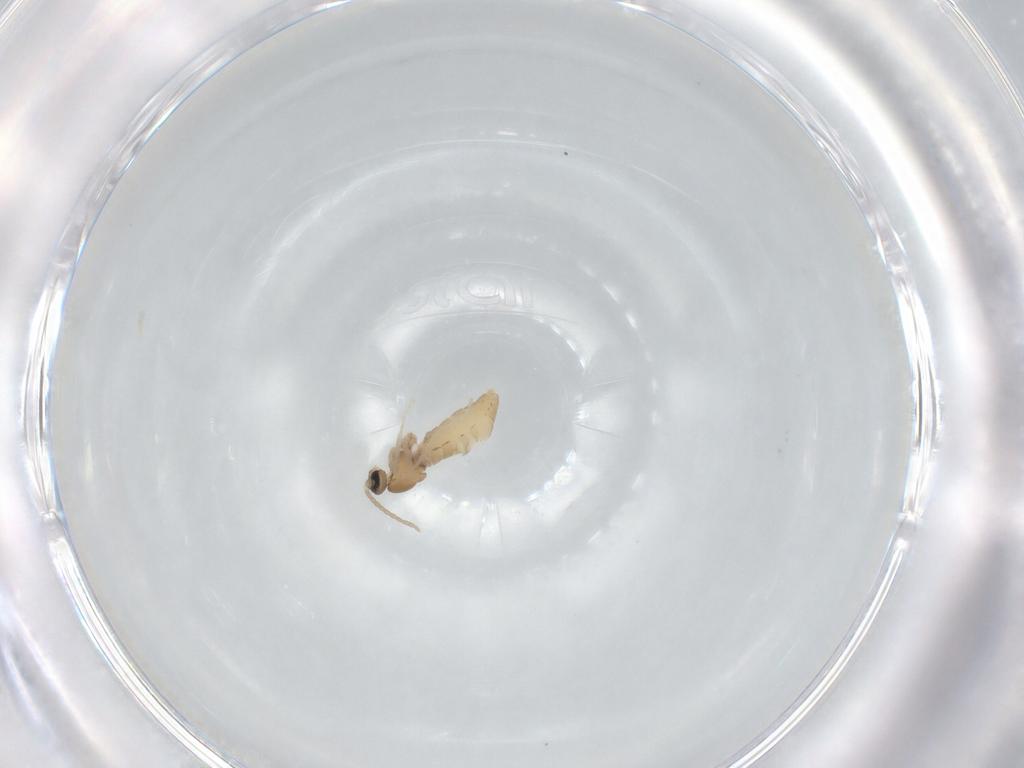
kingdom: Animalia
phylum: Arthropoda
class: Insecta
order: Diptera
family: Cecidomyiidae
